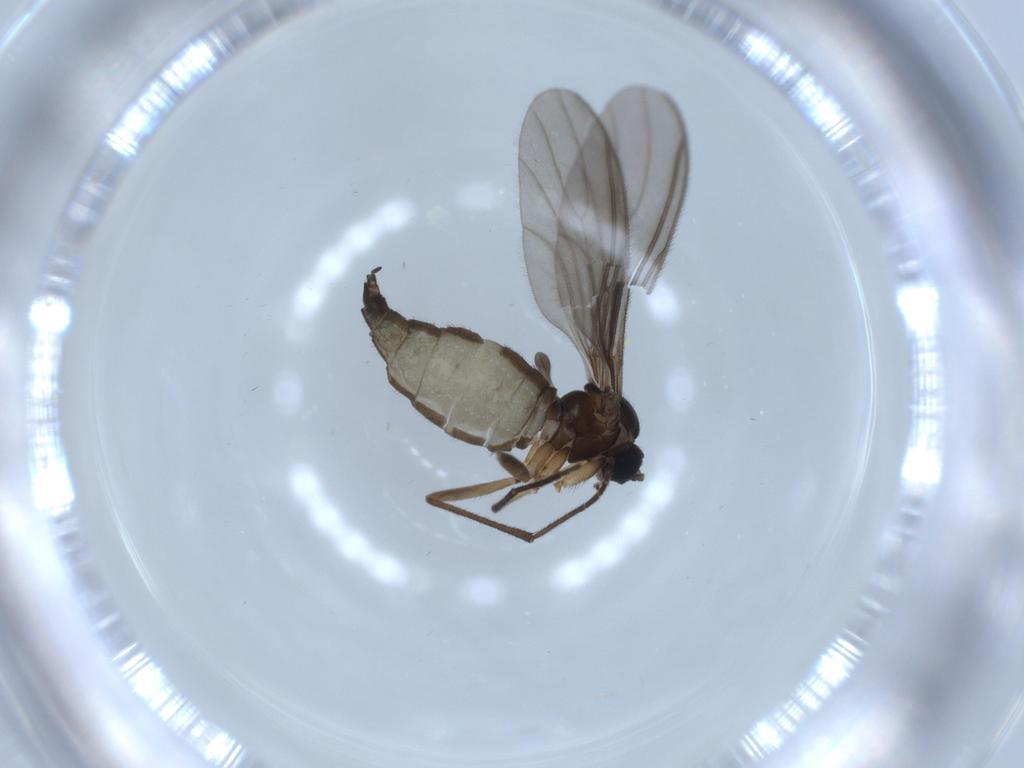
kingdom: Animalia
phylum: Arthropoda
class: Insecta
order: Diptera
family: Sciaridae
